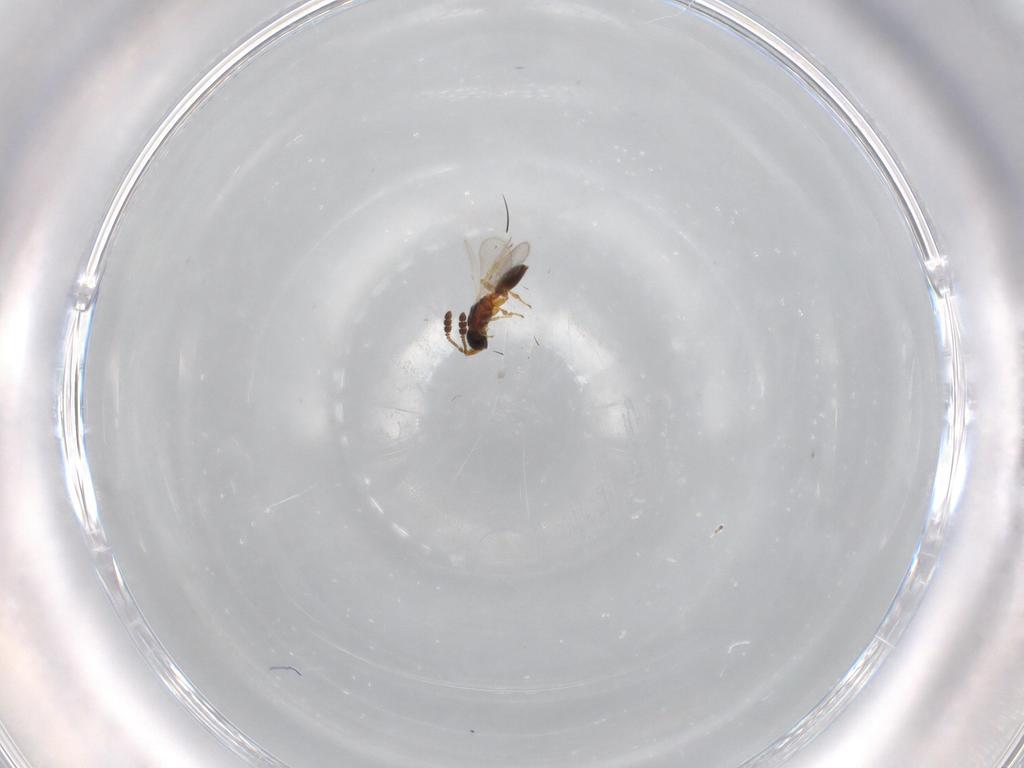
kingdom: Animalia
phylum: Arthropoda
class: Insecta
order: Hymenoptera
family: Diapriidae
